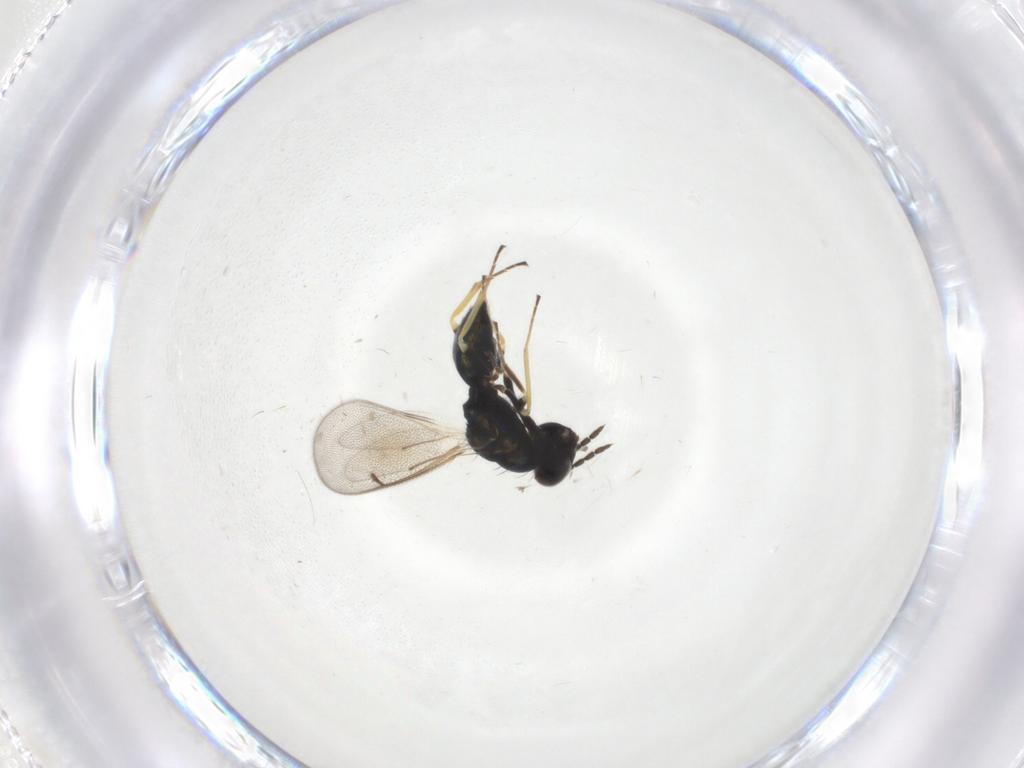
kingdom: Animalia
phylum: Arthropoda
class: Insecta
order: Hymenoptera
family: Eulophidae
